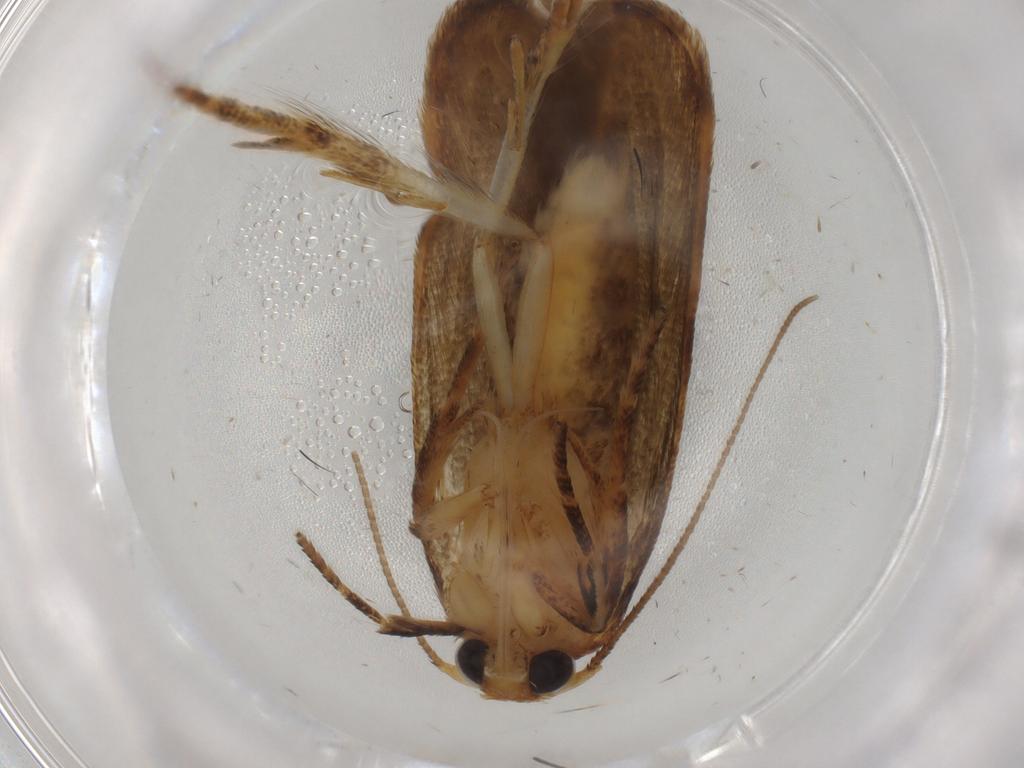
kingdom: Animalia
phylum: Arthropoda
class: Insecta
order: Lepidoptera
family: Blastobasidae
